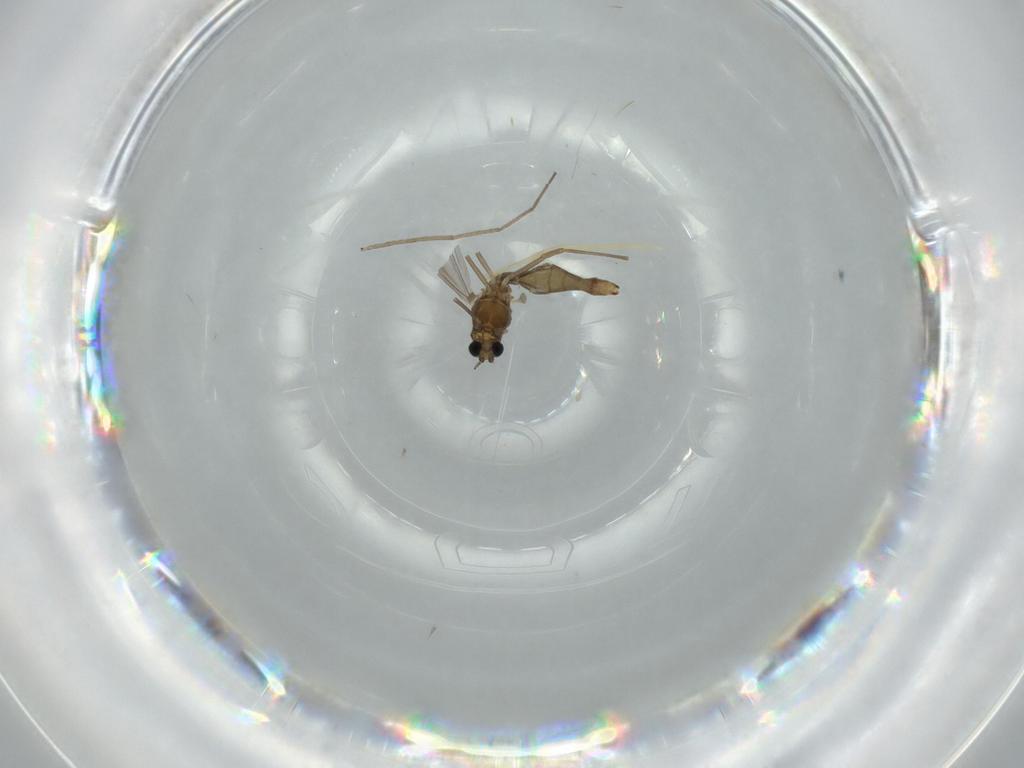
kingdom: Animalia
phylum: Arthropoda
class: Insecta
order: Diptera
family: Chironomidae
